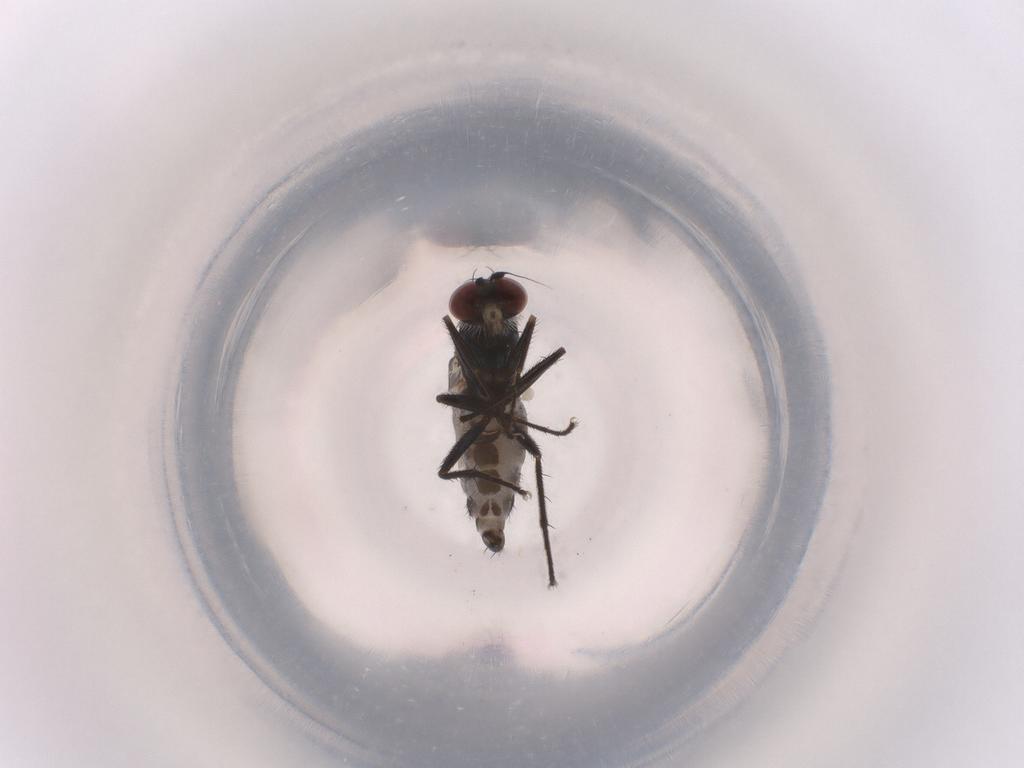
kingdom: Animalia
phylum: Arthropoda
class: Insecta
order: Diptera
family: Dolichopodidae
